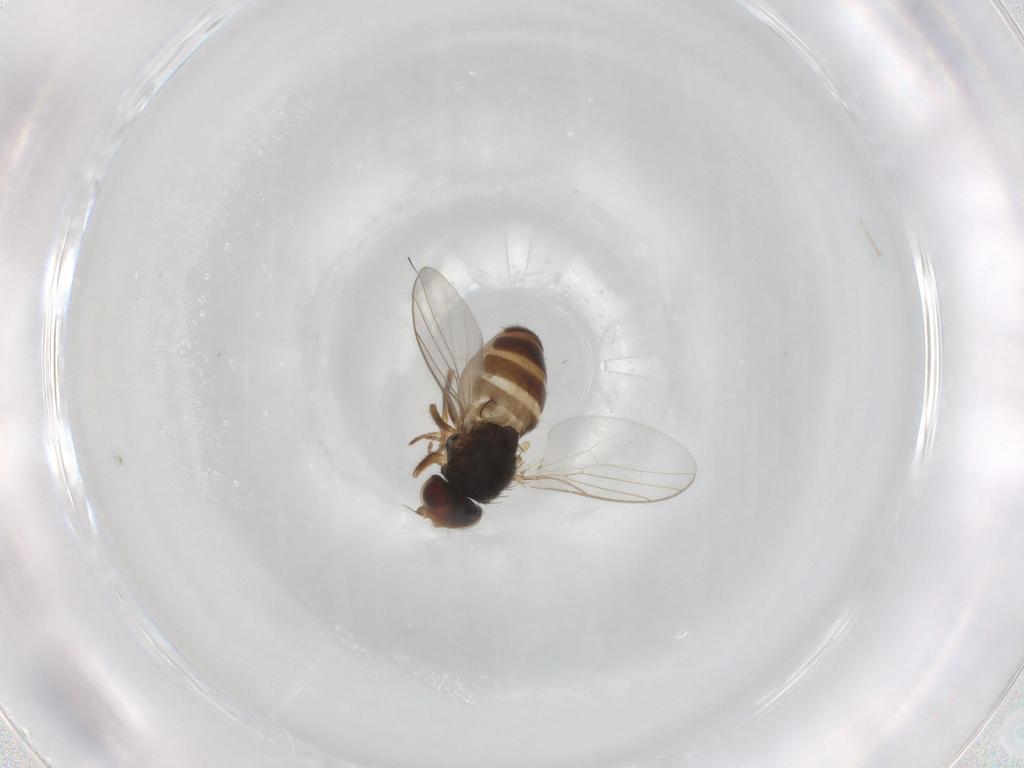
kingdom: Animalia
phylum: Arthropoda
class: Insecta
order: Diptera
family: Chloropidae
